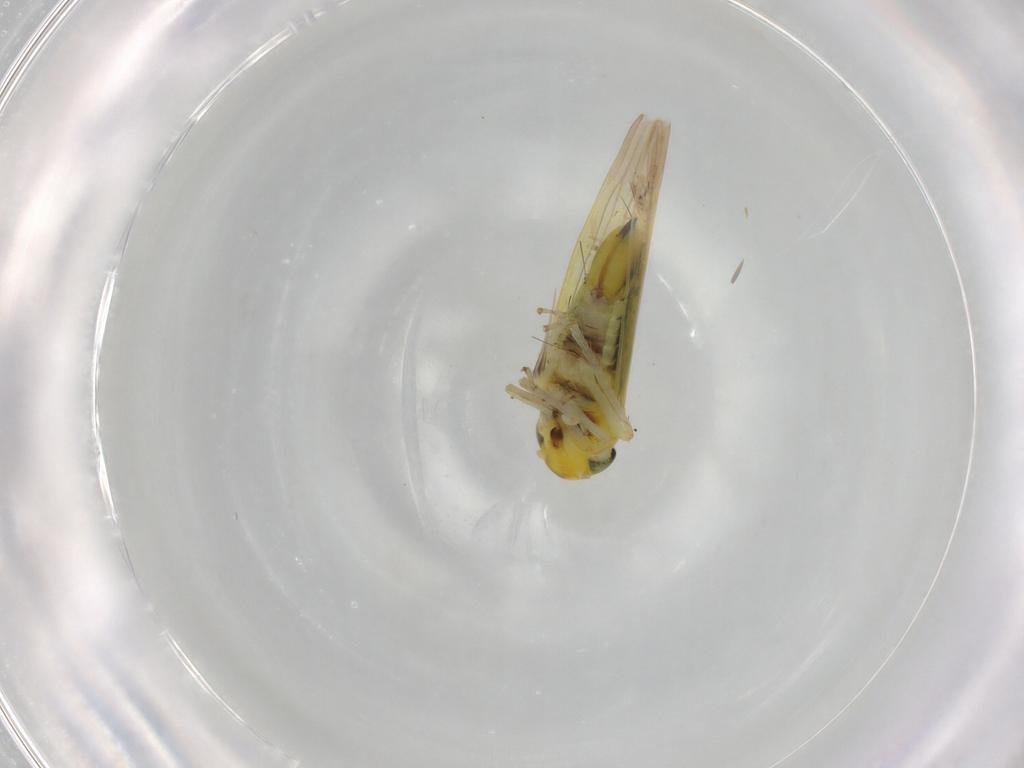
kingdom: Animalia
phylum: Arthropoda
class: Insecta
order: Hemiptera
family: Cicadellidae
